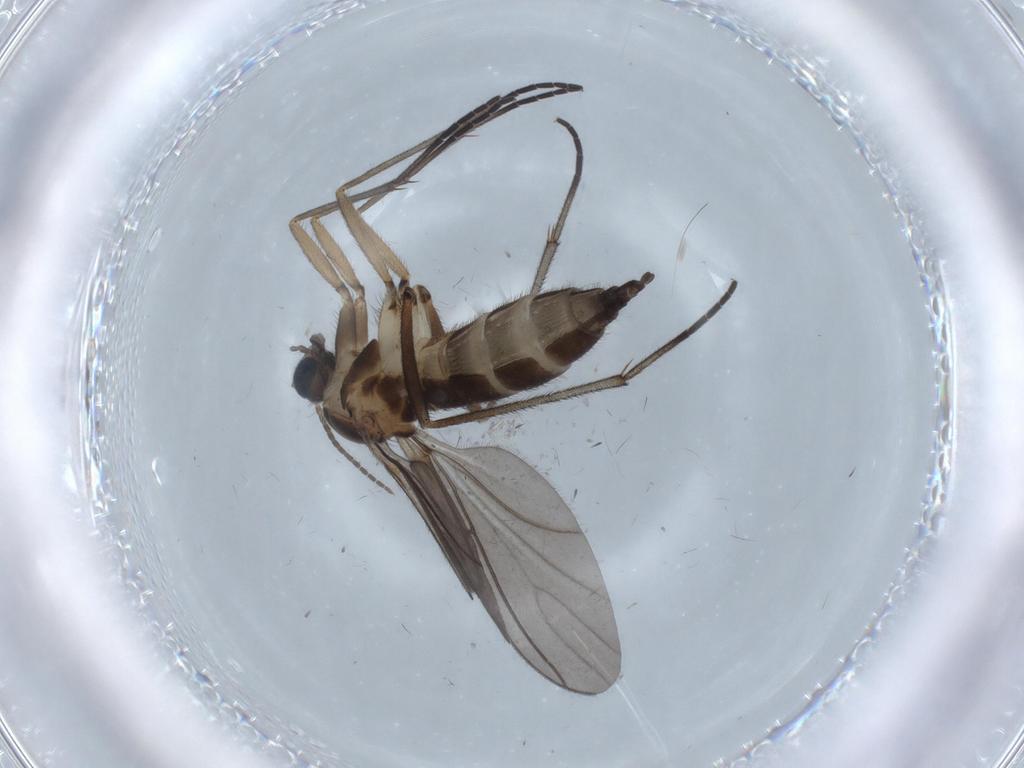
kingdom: Animalia
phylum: Arthropoda
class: Insecta
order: Diptera
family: Sciaridae
